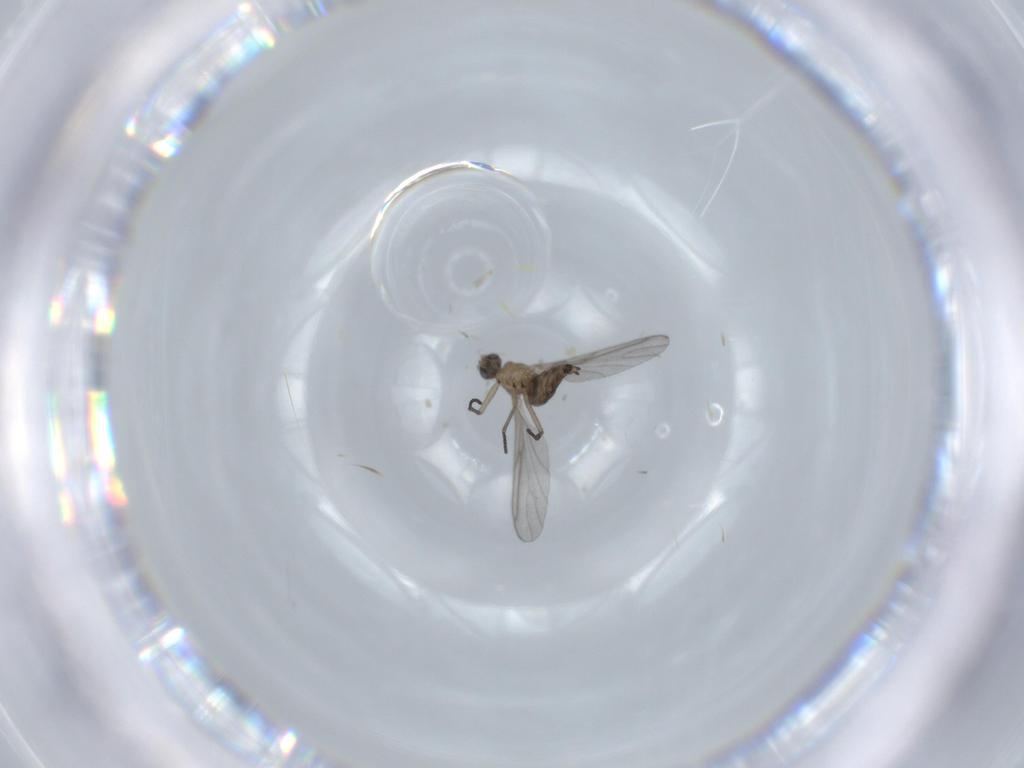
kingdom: Animalia
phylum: Arthropoda
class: Insecta
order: Diptera
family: Sciaridae
